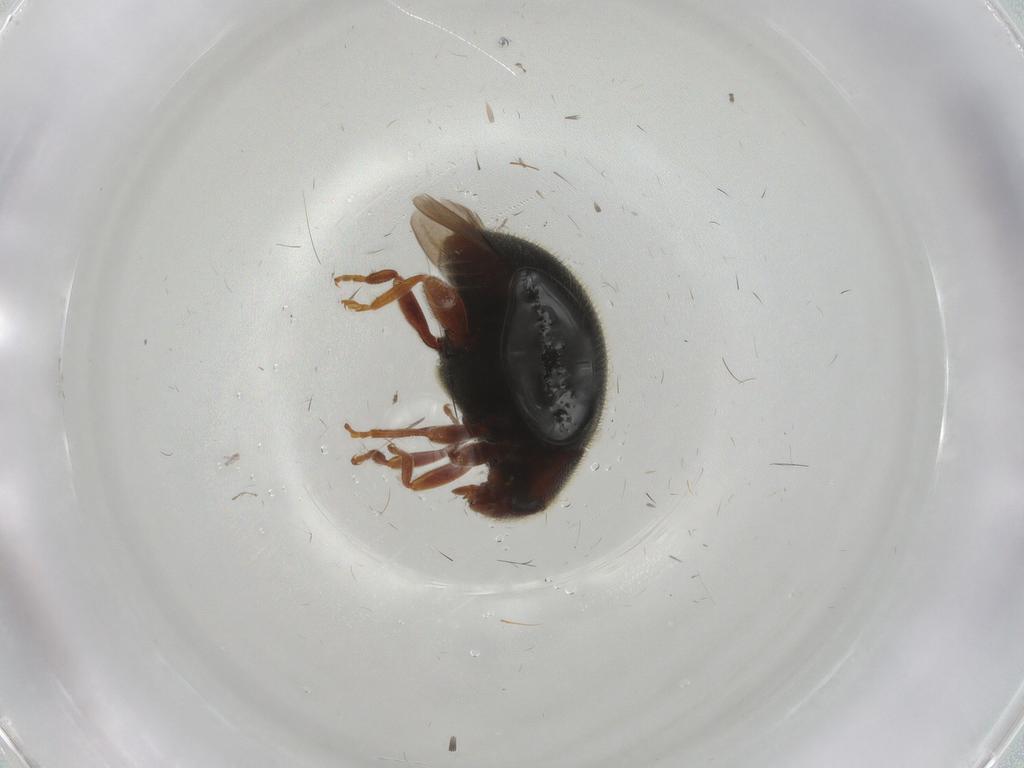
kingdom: Animalia
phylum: Arthropoda
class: Insecta
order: Coleoptera
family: Coccinellidae
